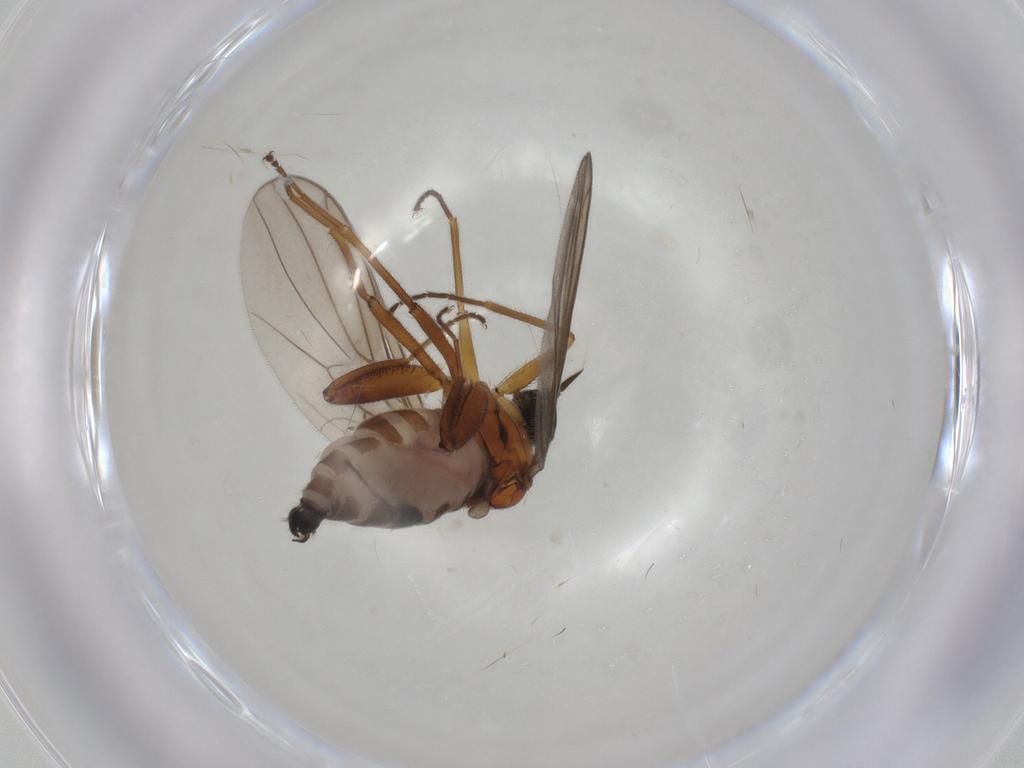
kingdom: Animalia
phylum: Arthropoda
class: Insecta
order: Diptera
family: Hybotidae
